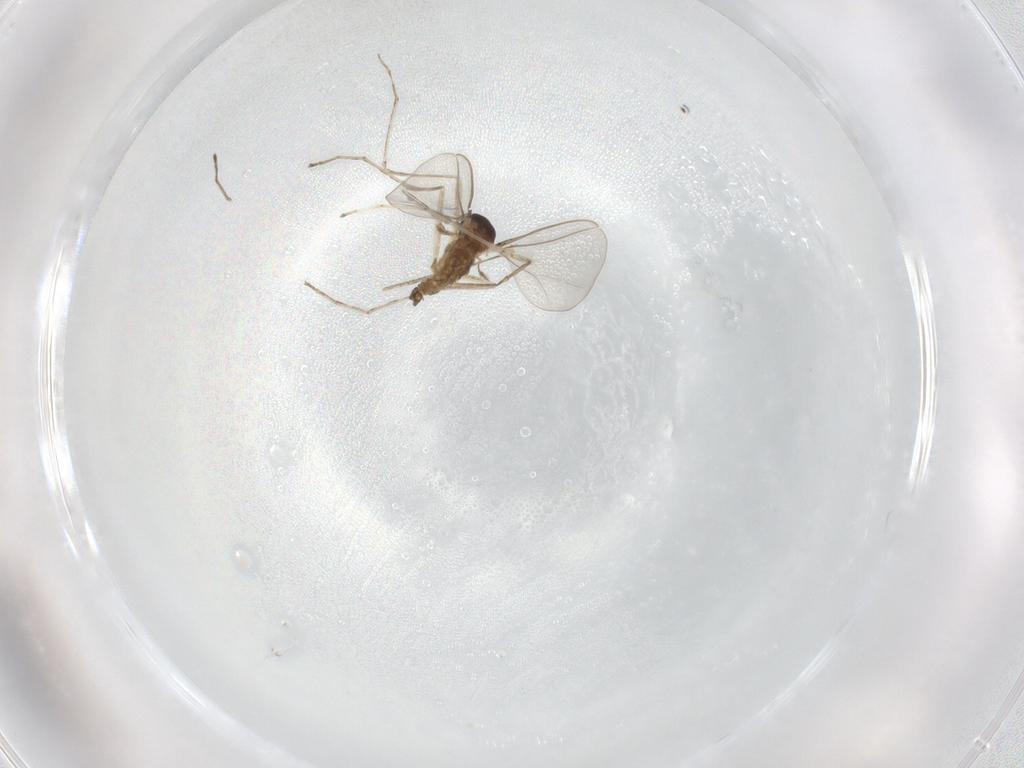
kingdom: Animalia
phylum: Arthropoda
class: Insecta
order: Diptera
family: Cecidomyiidae
